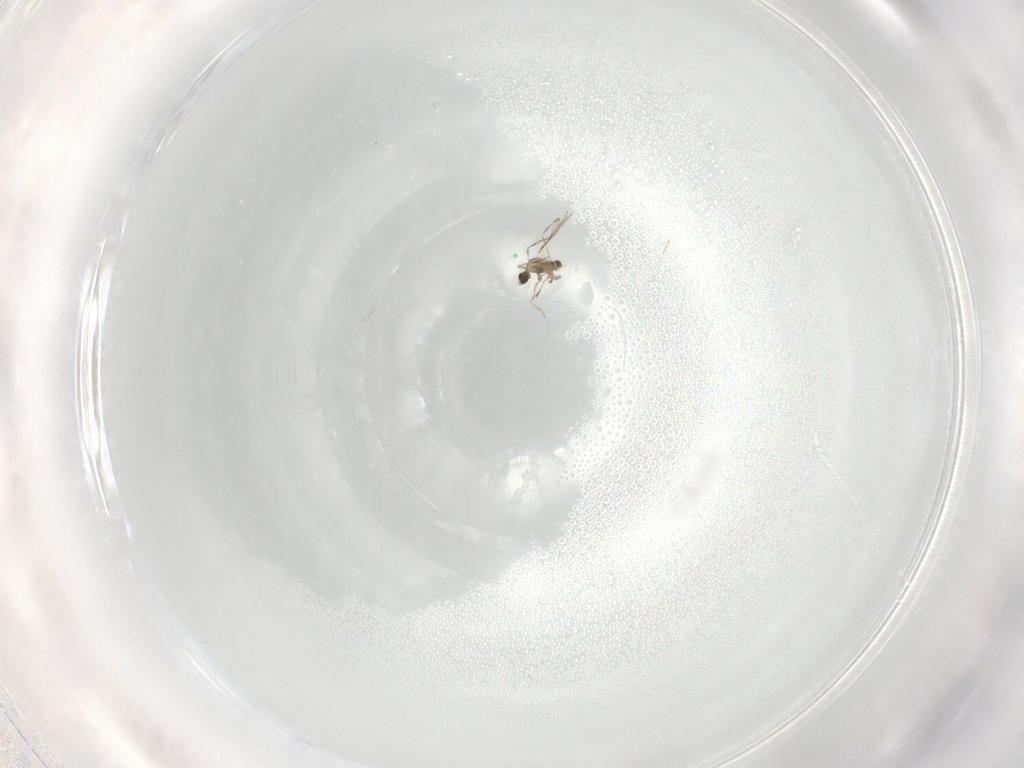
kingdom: Animalia
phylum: Arthropoda
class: Insecta
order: Diptera
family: Cecidomyiidae
